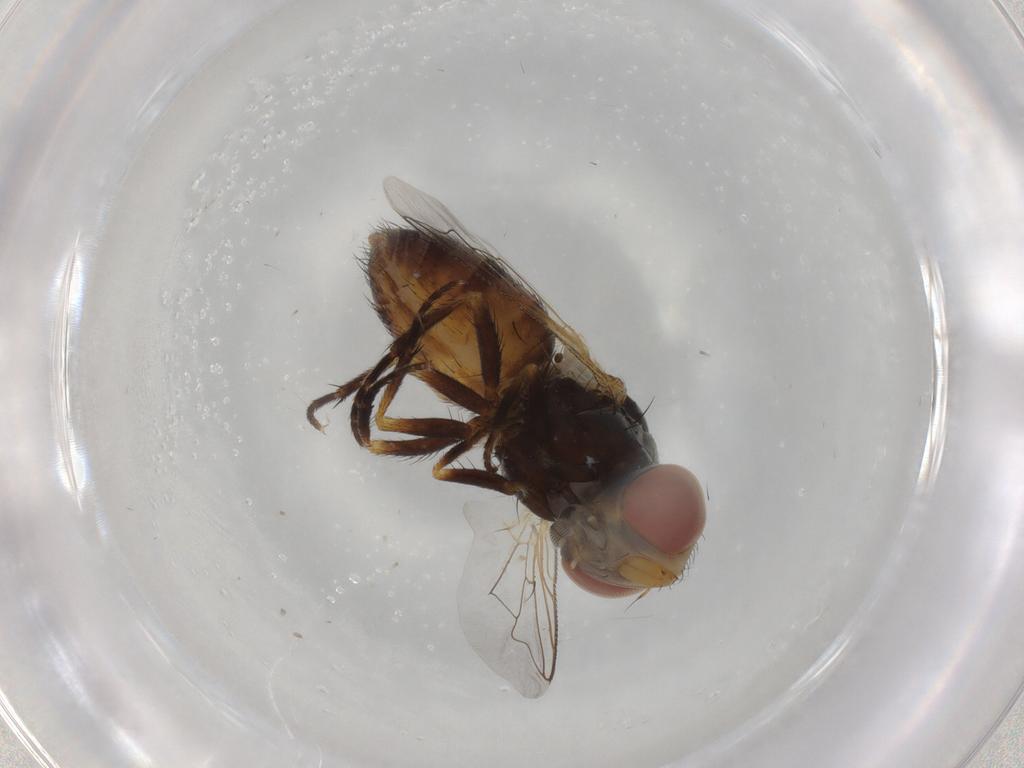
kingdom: Animalia
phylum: Arthropoda
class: Insecta
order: Diptera
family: Sarcophagidae
